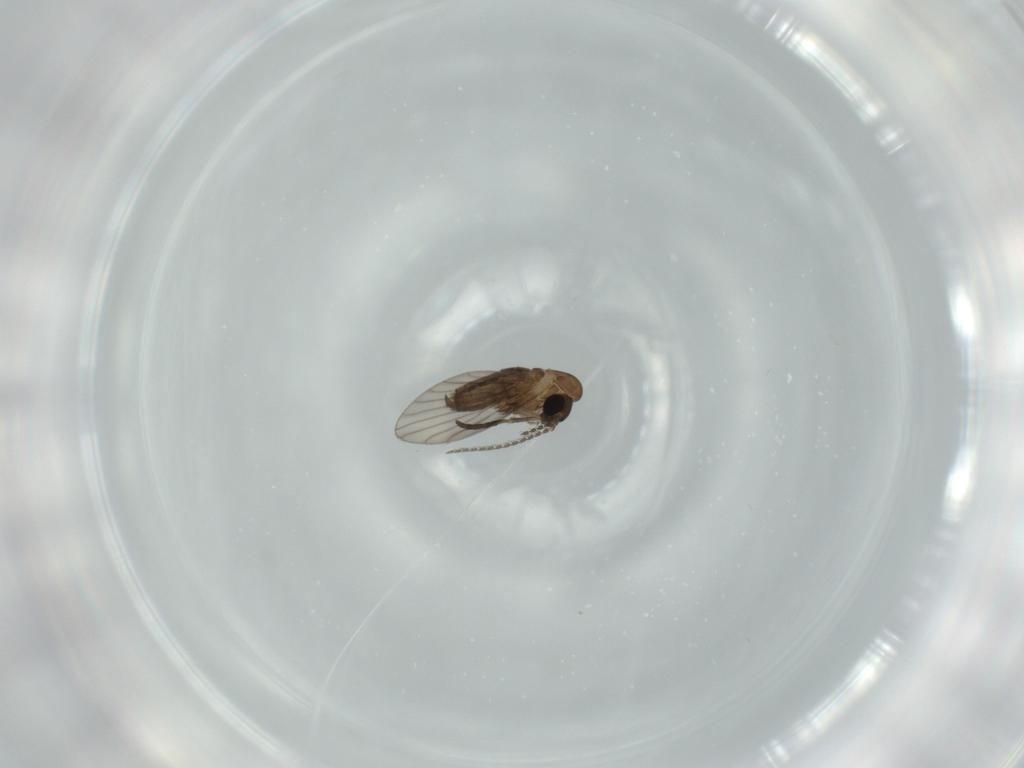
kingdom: Animalia
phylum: Arthropoda
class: Insecta
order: Diptera
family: Psychodidae
